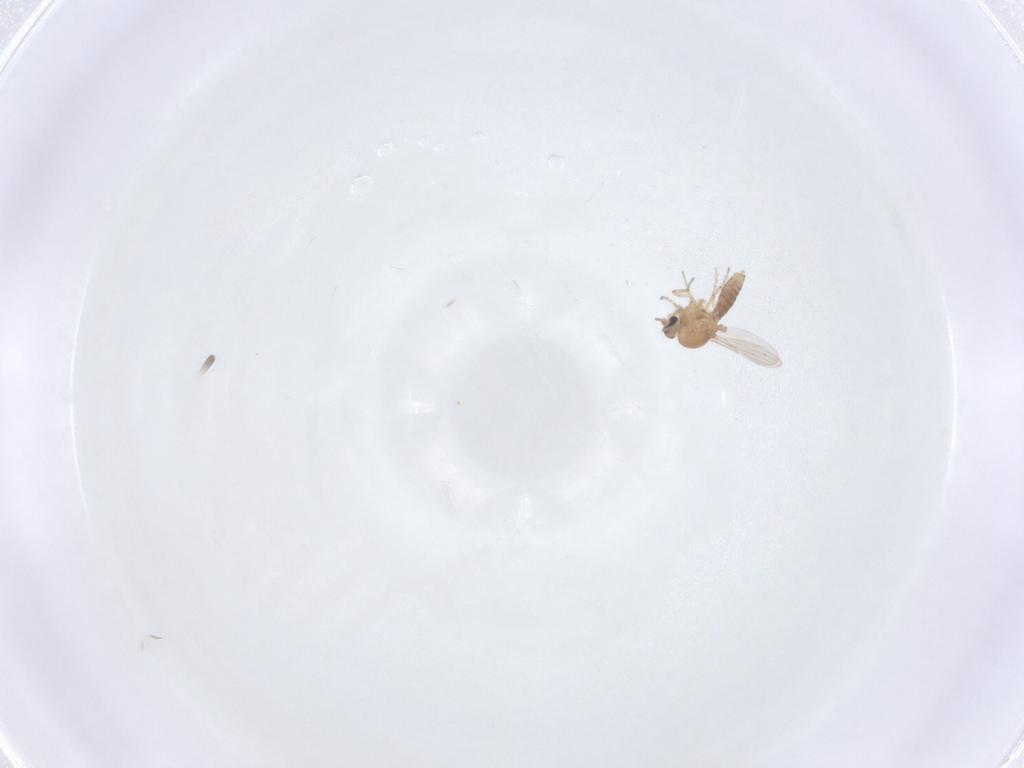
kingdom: Animalia
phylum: Arthropoda
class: Insecta
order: Diptera
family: Ceratopogonidae
